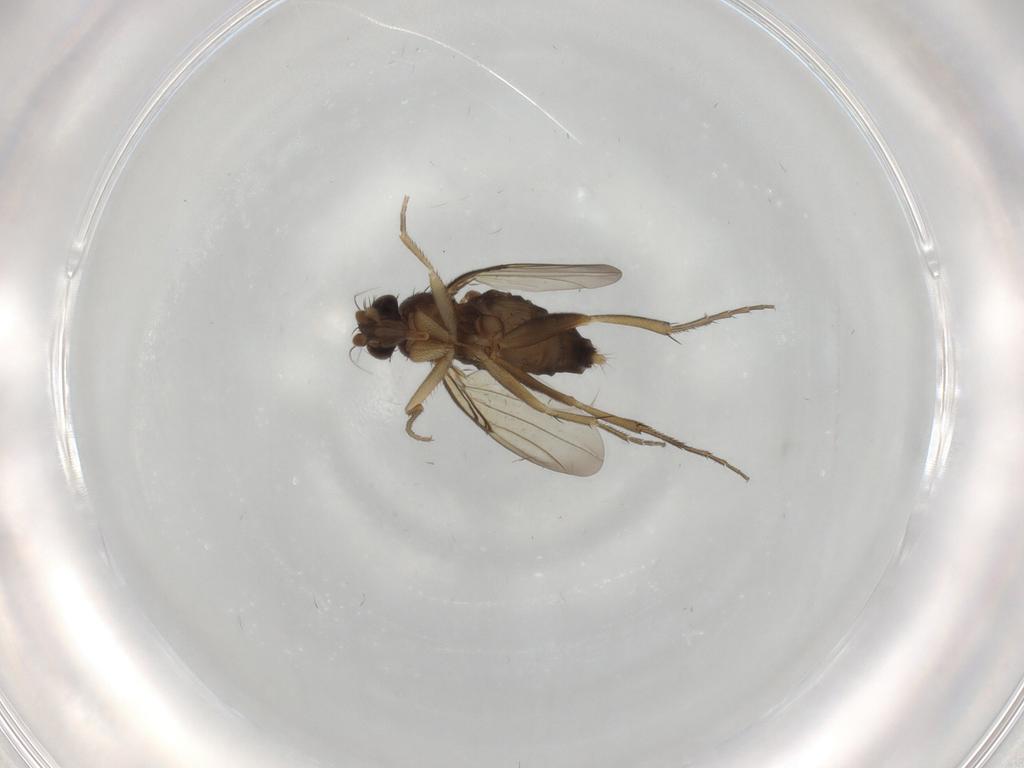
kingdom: Animalia
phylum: Arthropoda
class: Insecta
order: Diptera
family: Phoridae
